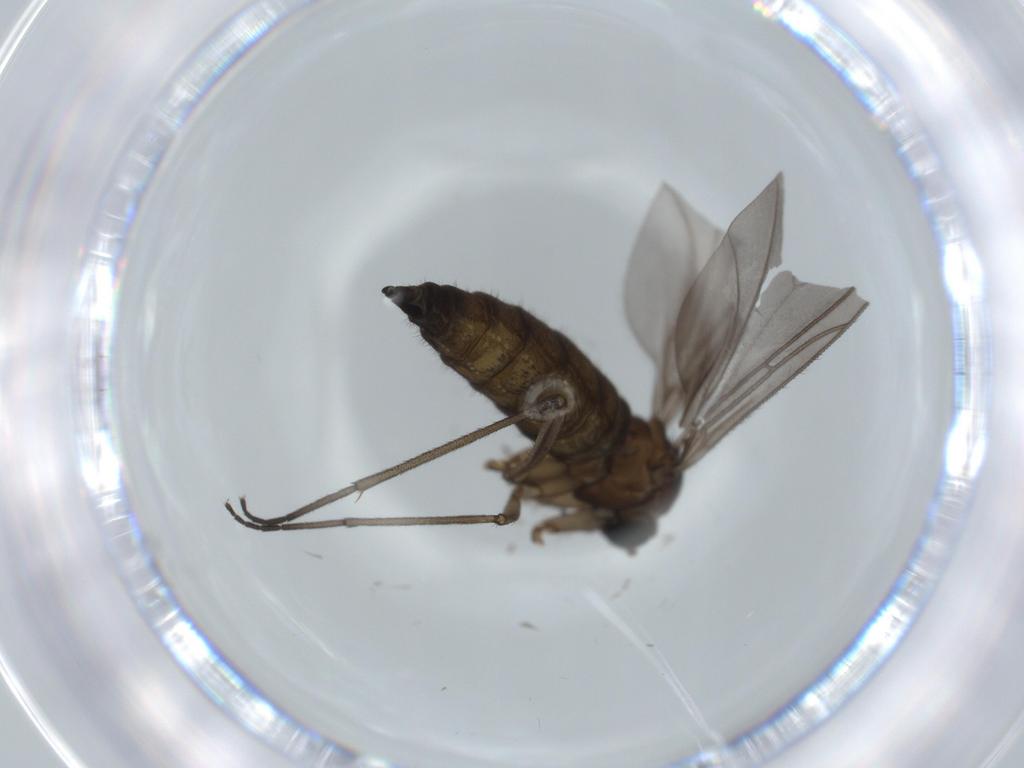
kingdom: Animalia
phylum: Arthropoda
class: Insecta
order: Diptera
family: Sciaridae
